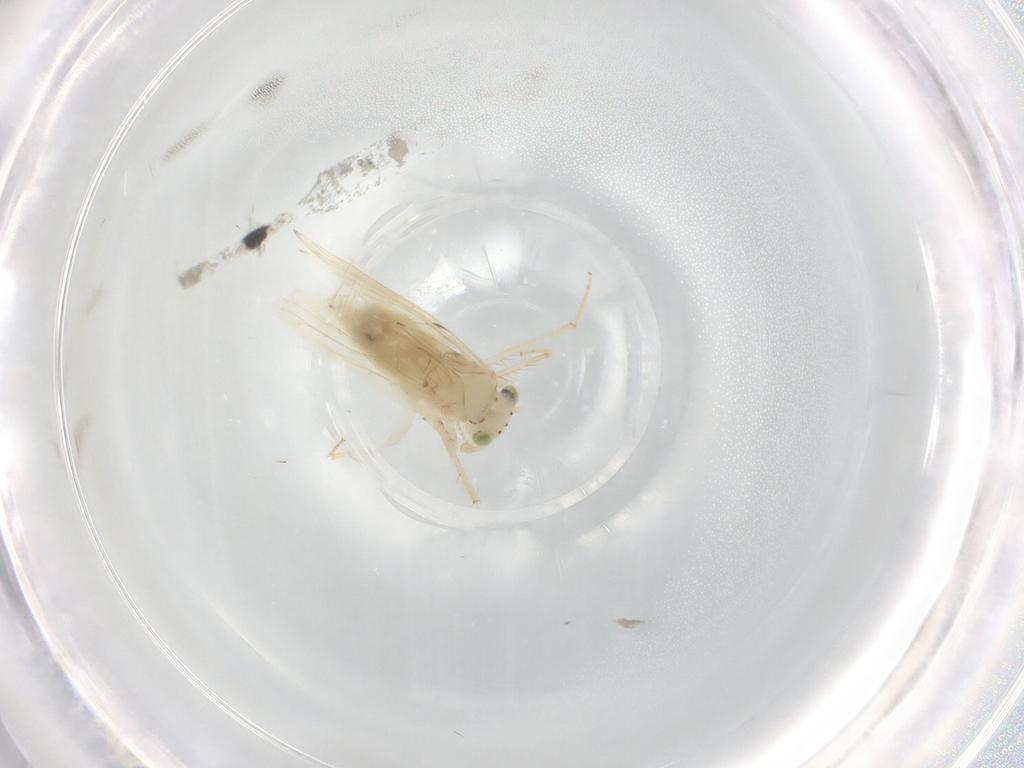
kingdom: Animalia
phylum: Arthropoda
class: Insecta
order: Psocodea
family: Lepidopsocidae
